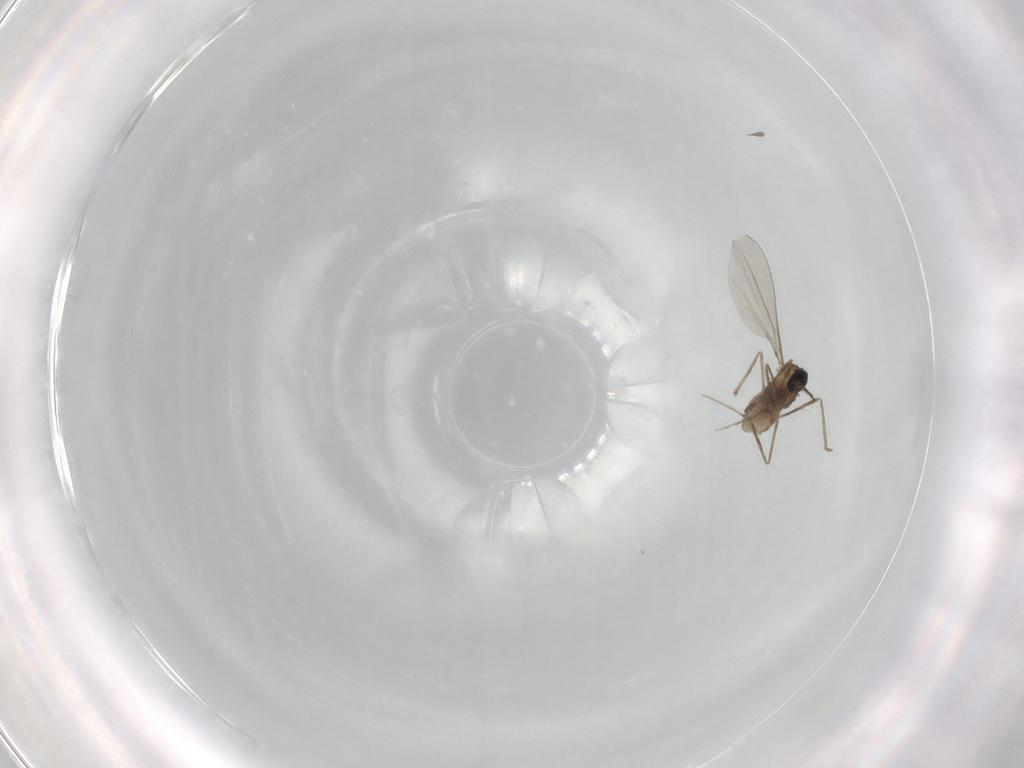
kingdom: Animalia
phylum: Arthropoda
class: Insecta
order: Diptera
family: Cecidomyiidae
